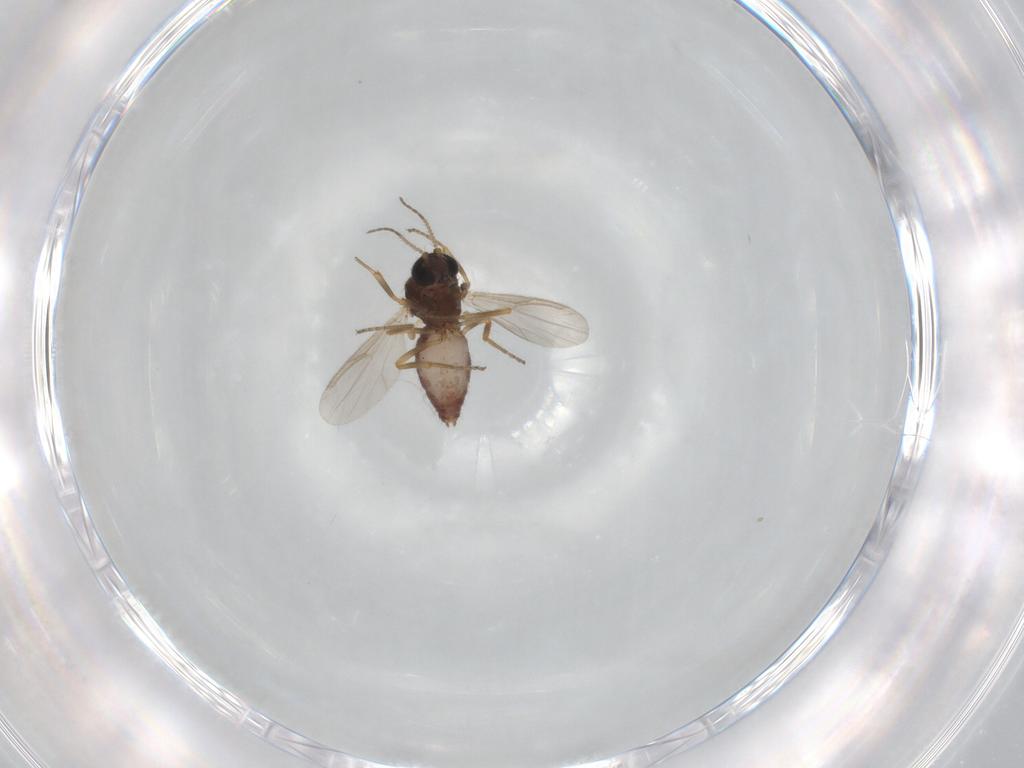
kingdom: Animalia
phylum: Arthropoda
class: Insecta
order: Diptera
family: Ceratopogonidae
